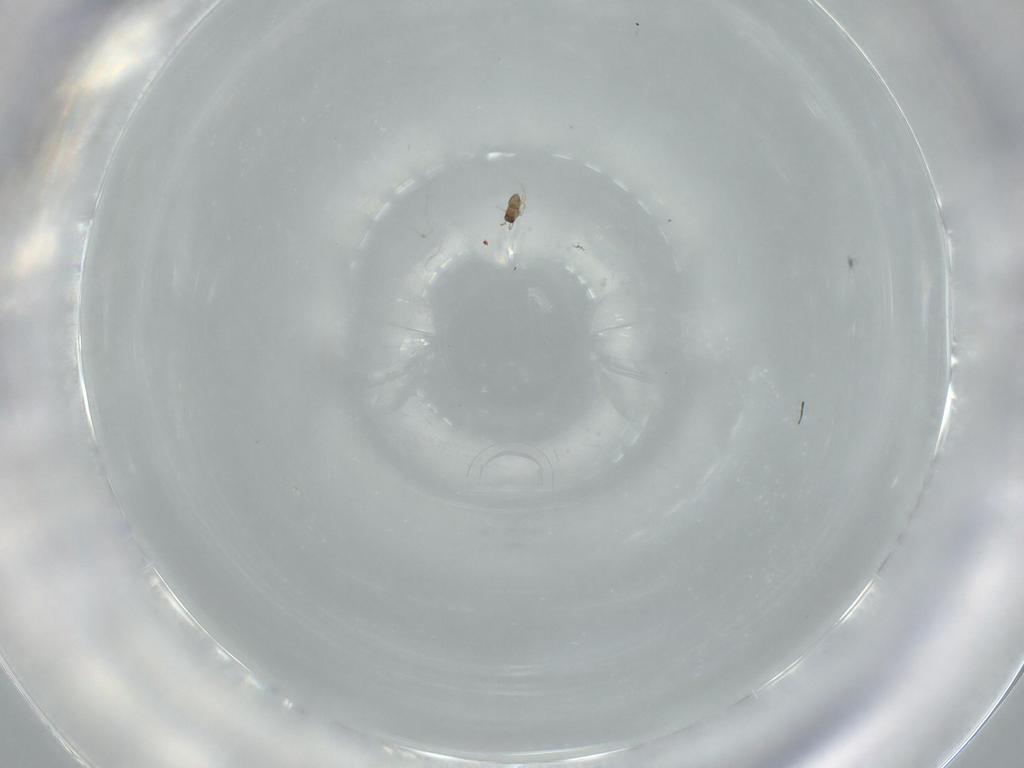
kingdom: Animalia
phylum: Arthropoda
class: Insecta
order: Hymenoptera
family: Scelionidae
